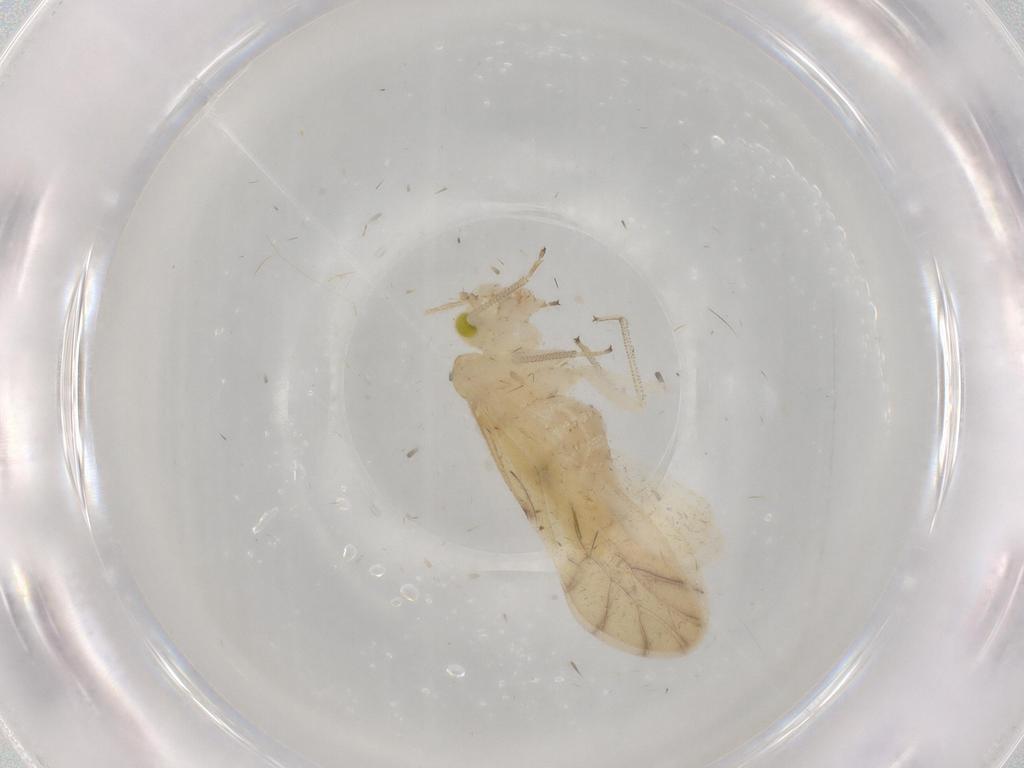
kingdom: Animalia
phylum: Arthropoda
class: Insecta
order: Psocodea
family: Caeciliusidae
